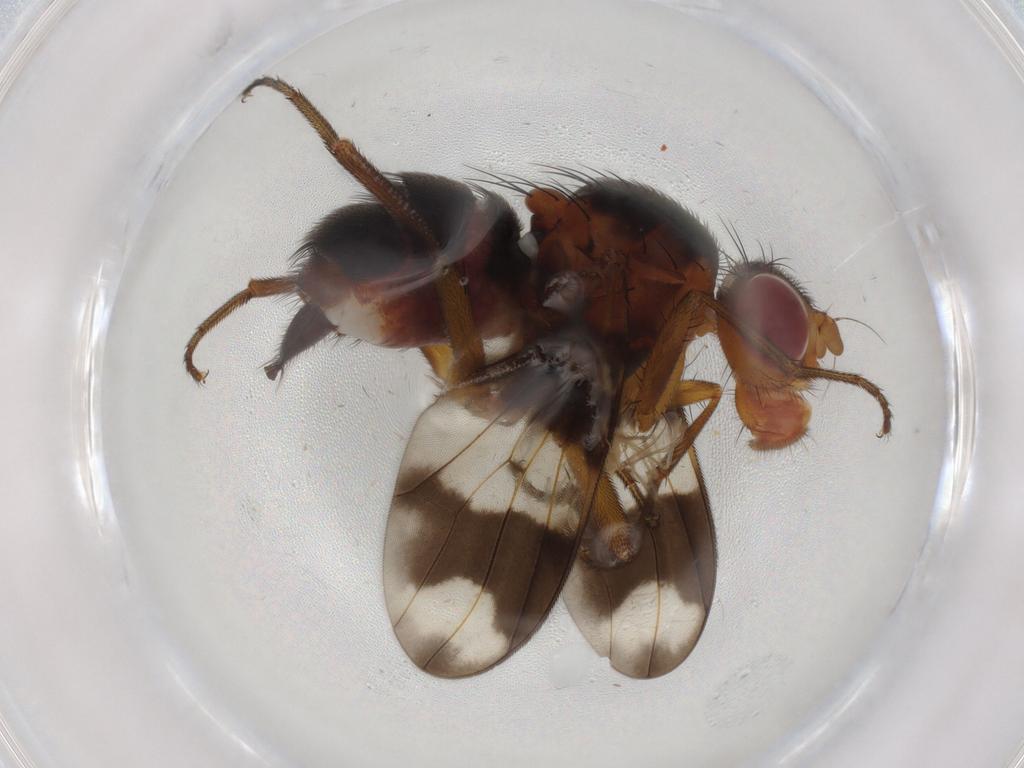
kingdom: Animalia
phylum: Arthropoda
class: Insecta
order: Diptera
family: Richardiidae
